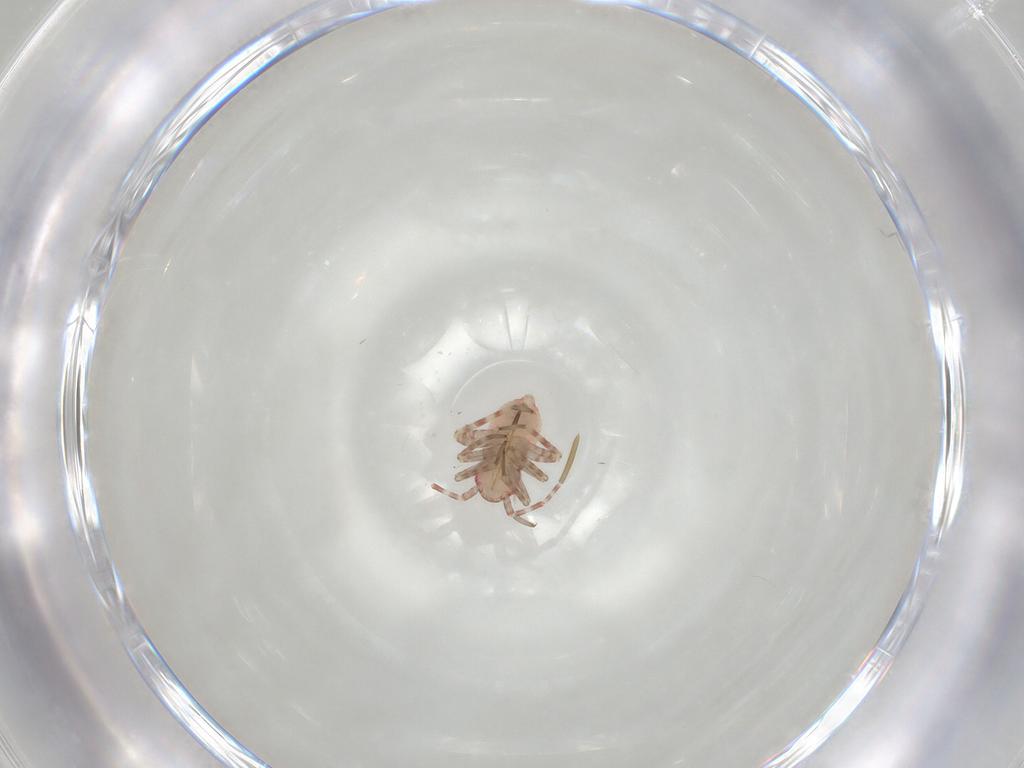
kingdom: Animalia
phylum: Arthropoda
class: Insecta
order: Hemiptera
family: Miridae
